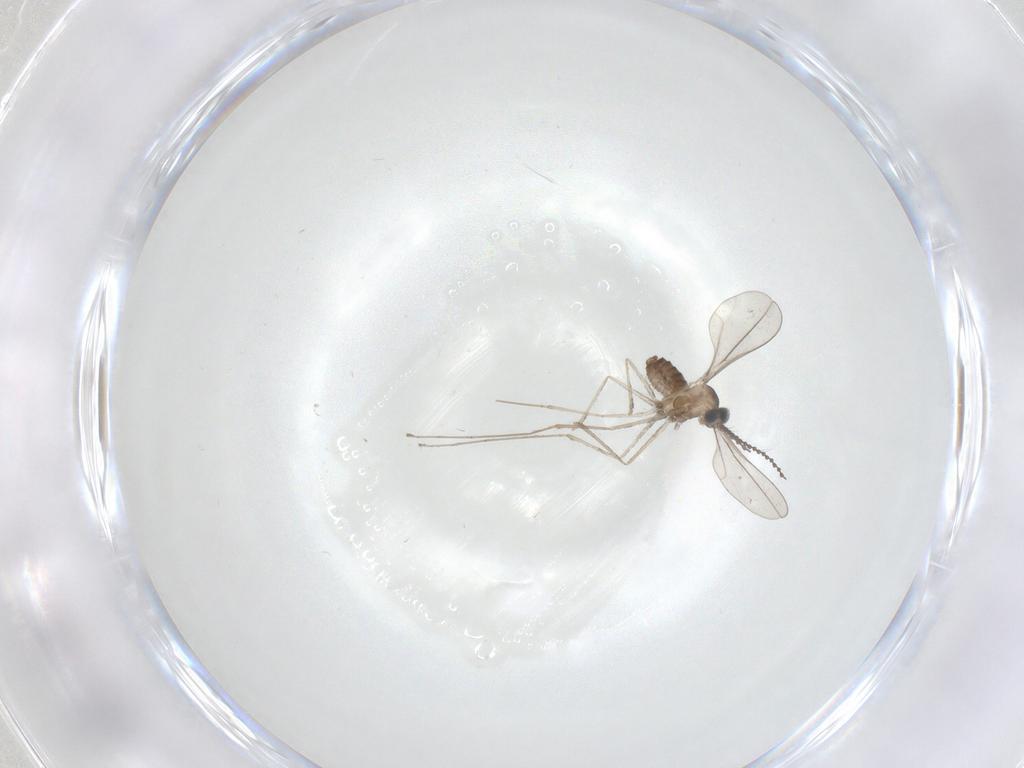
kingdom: Animalia
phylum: Arthropoda
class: Insecta
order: Diptera
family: Cecidomyiidae
